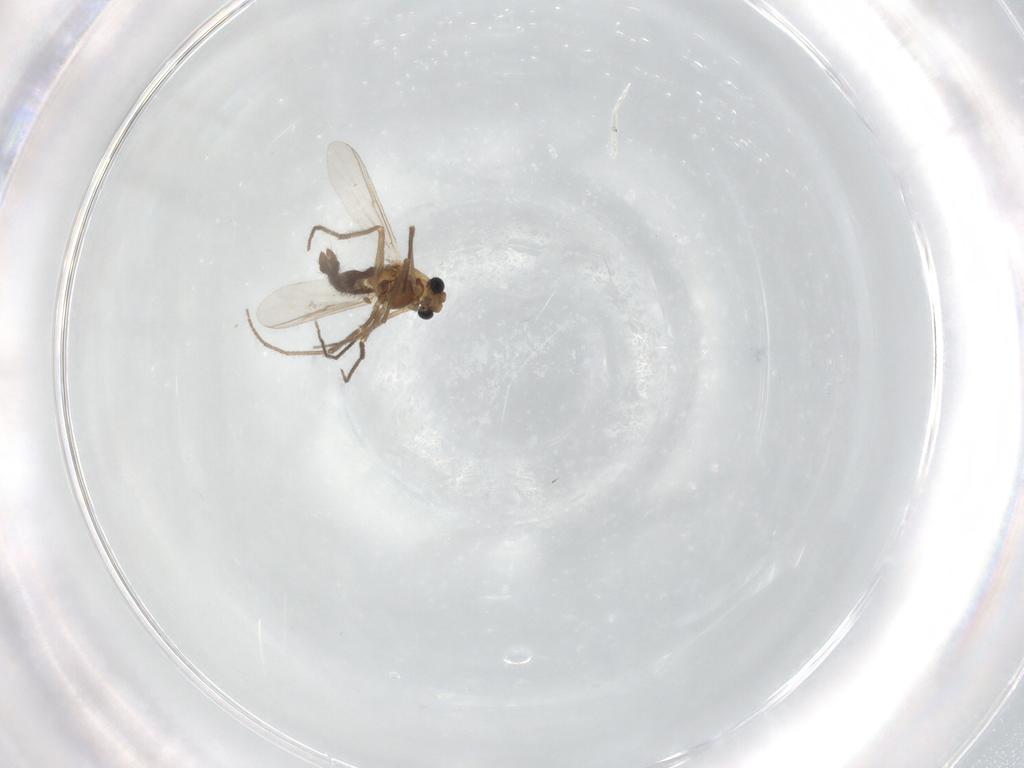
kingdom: Animalia
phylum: Arthropoda
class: Insecta
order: Diptera
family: Chironomidae
